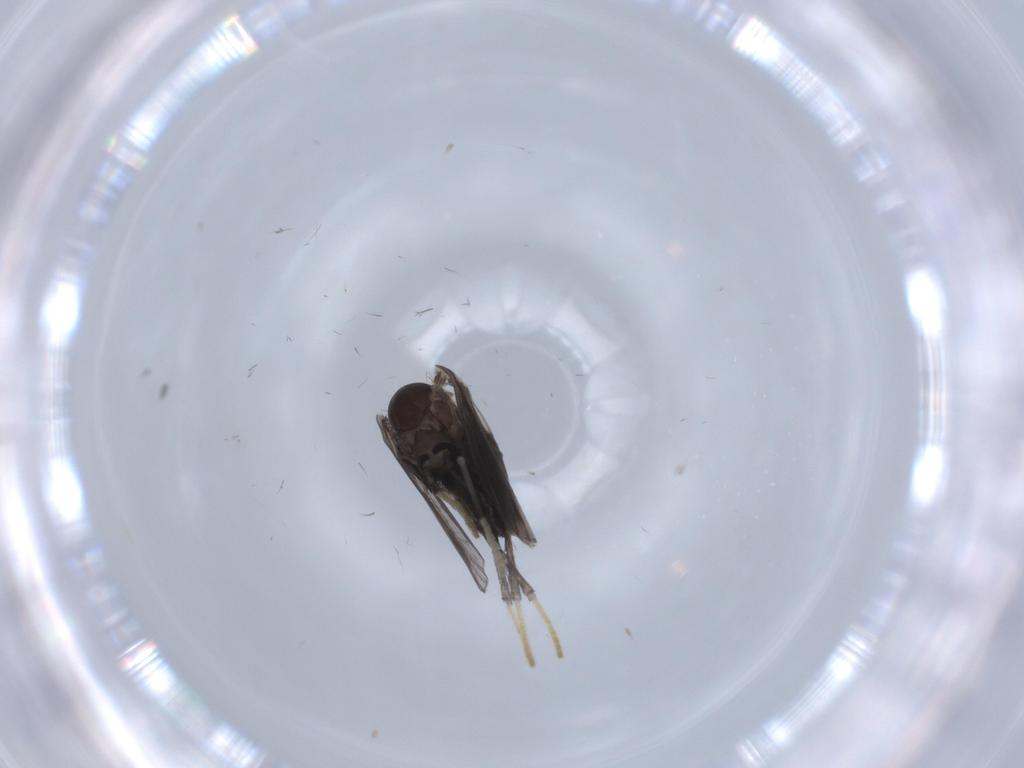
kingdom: Animalia
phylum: Arthropoda
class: Insecta
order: Diptera
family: Psychodidae
